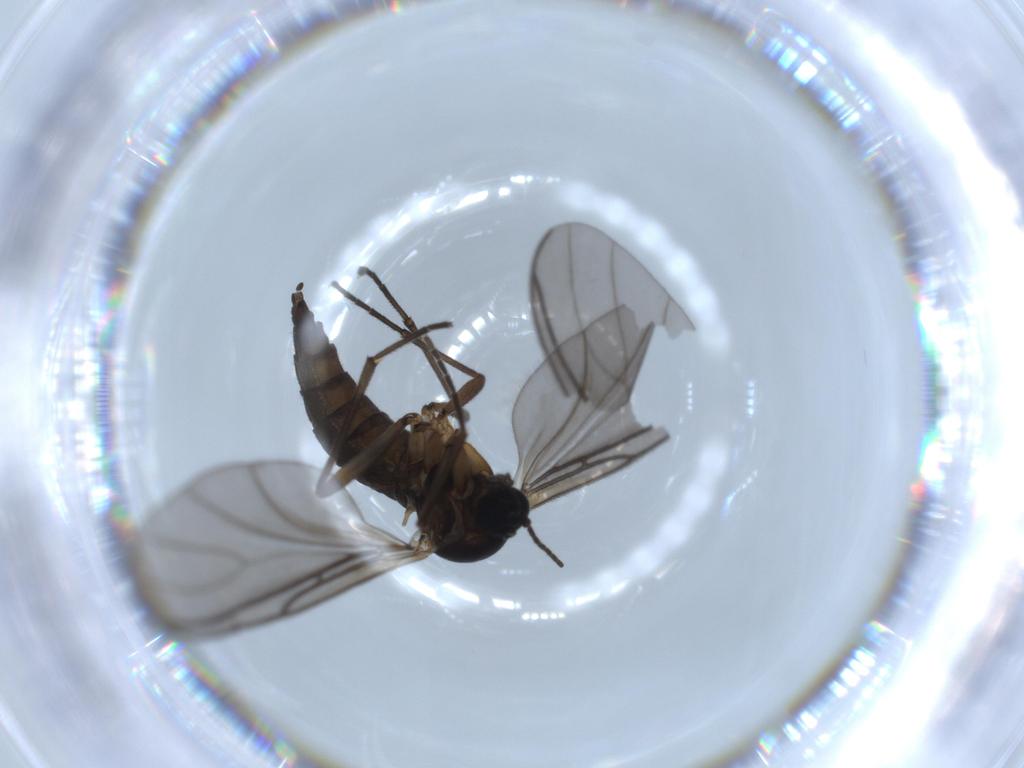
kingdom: Animalia
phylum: Arthropoda
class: Insecta
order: Diptera
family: Sciaridae
